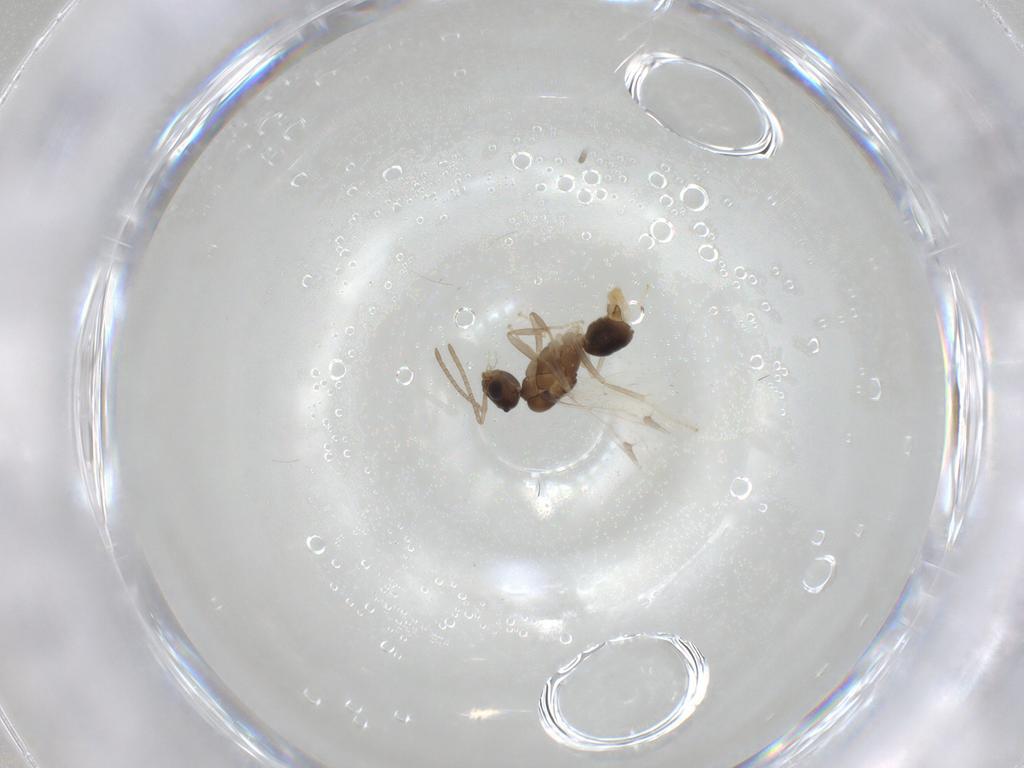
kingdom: Animalia
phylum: Arthropoda
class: Insecta
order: Hymenoptera
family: Formicidae
